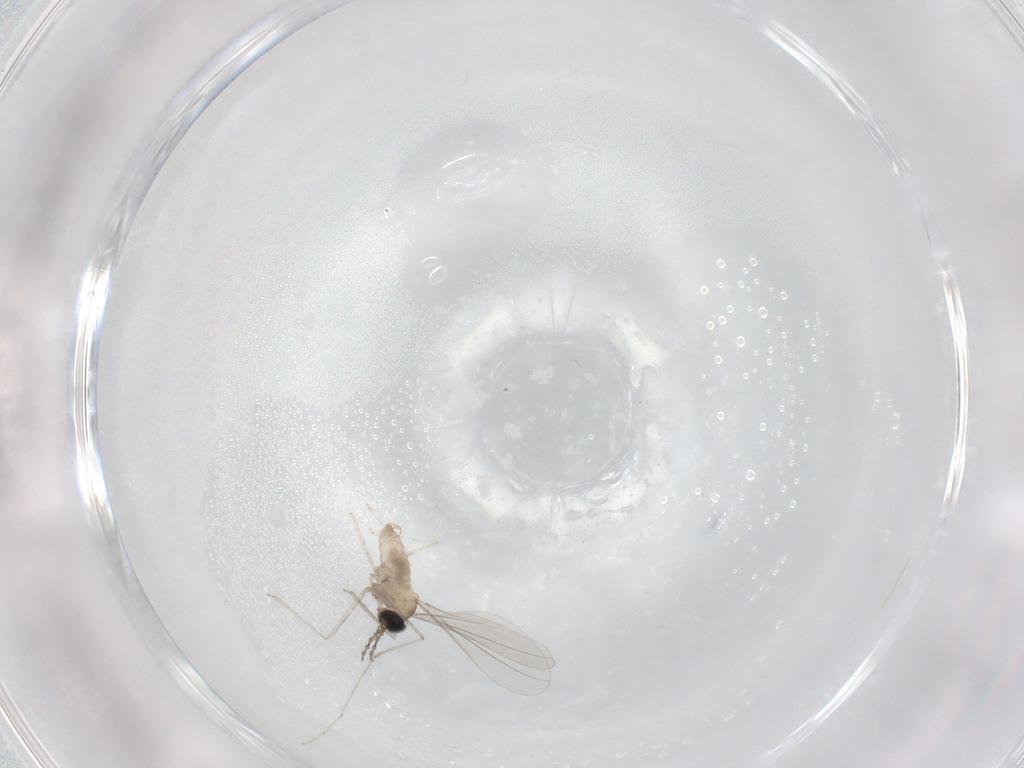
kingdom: Animalia
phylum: Arthropoda
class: Insecta
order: Diptera
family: Cecidomyiidae
